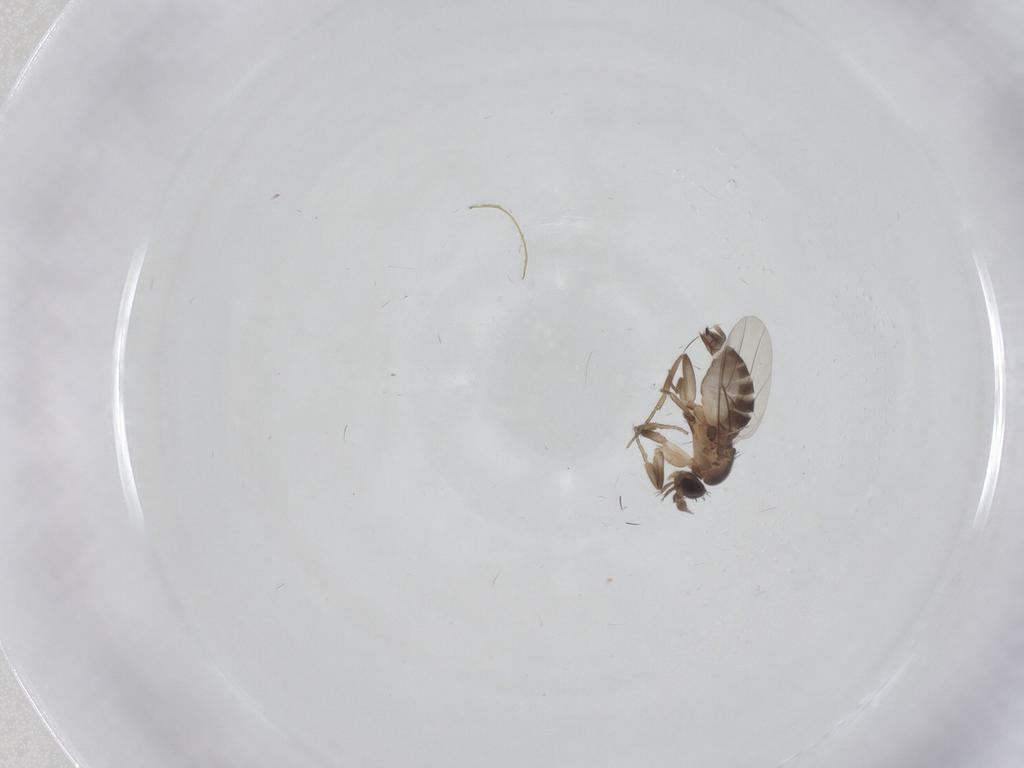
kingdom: Animalia
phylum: Arthropoda
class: Insecta
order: Diptera
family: Phoridae
